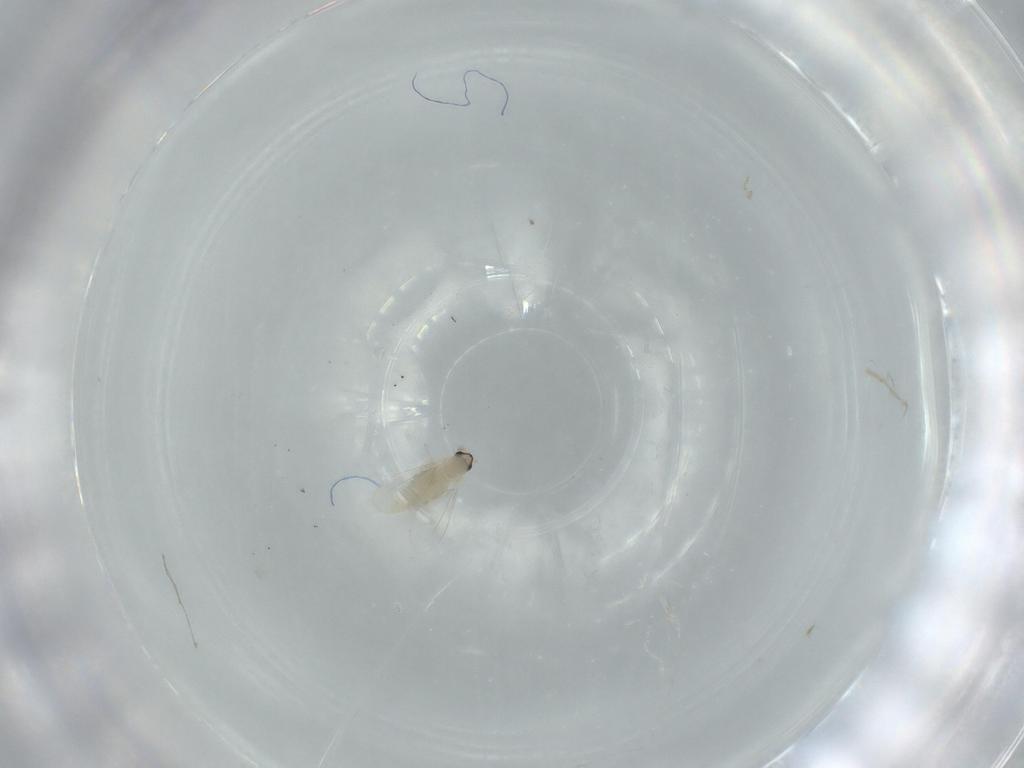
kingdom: Animalia
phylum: Arthropoda
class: Insecta
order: Diptera
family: Cecidomyiidae
